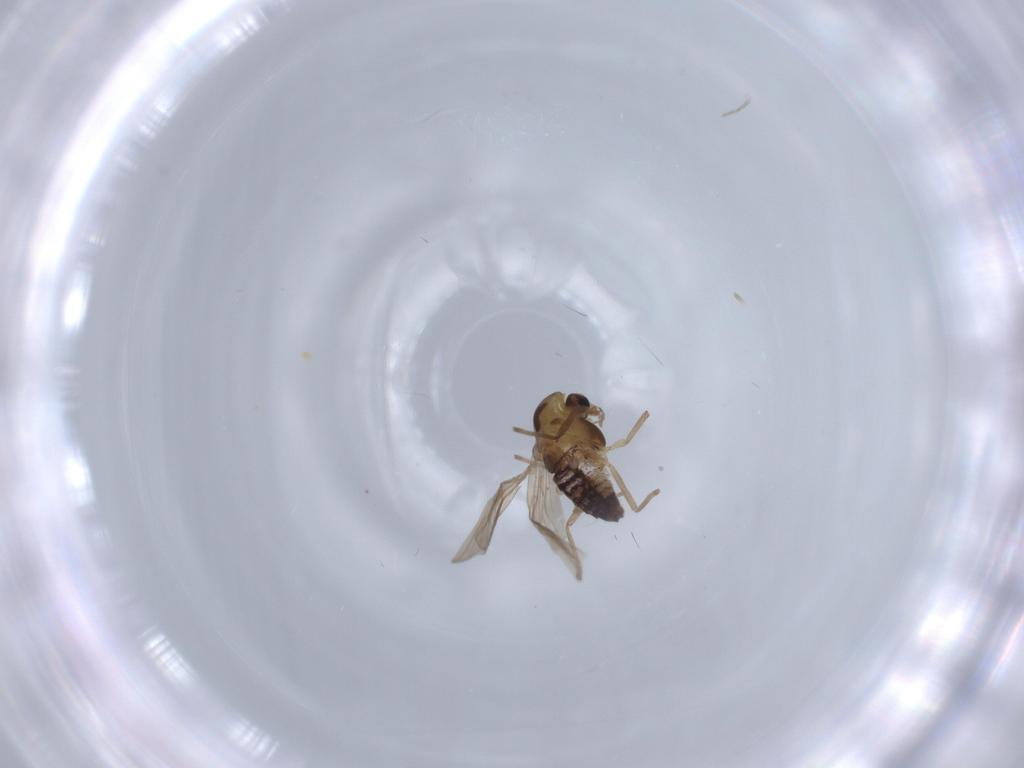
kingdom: Animalia
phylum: Arthropoda
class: Insecta
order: Diptera
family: Chironomidae
